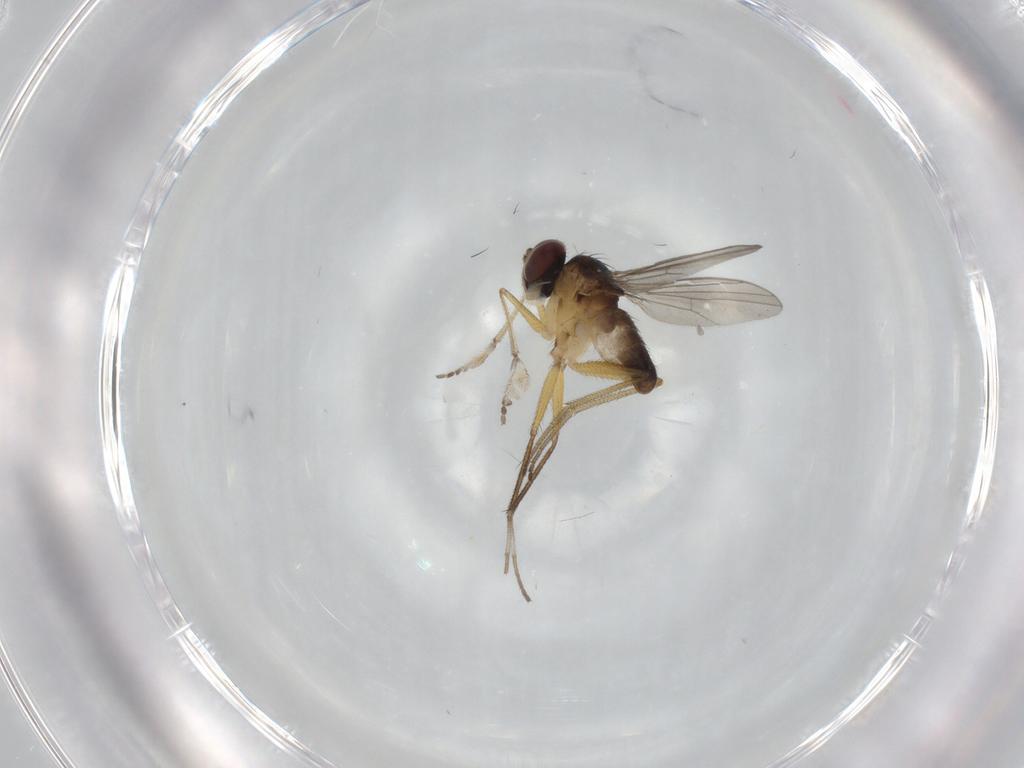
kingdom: Animalia
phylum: Arthropoda
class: Insecta
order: Diptera
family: Dolichopodidae
